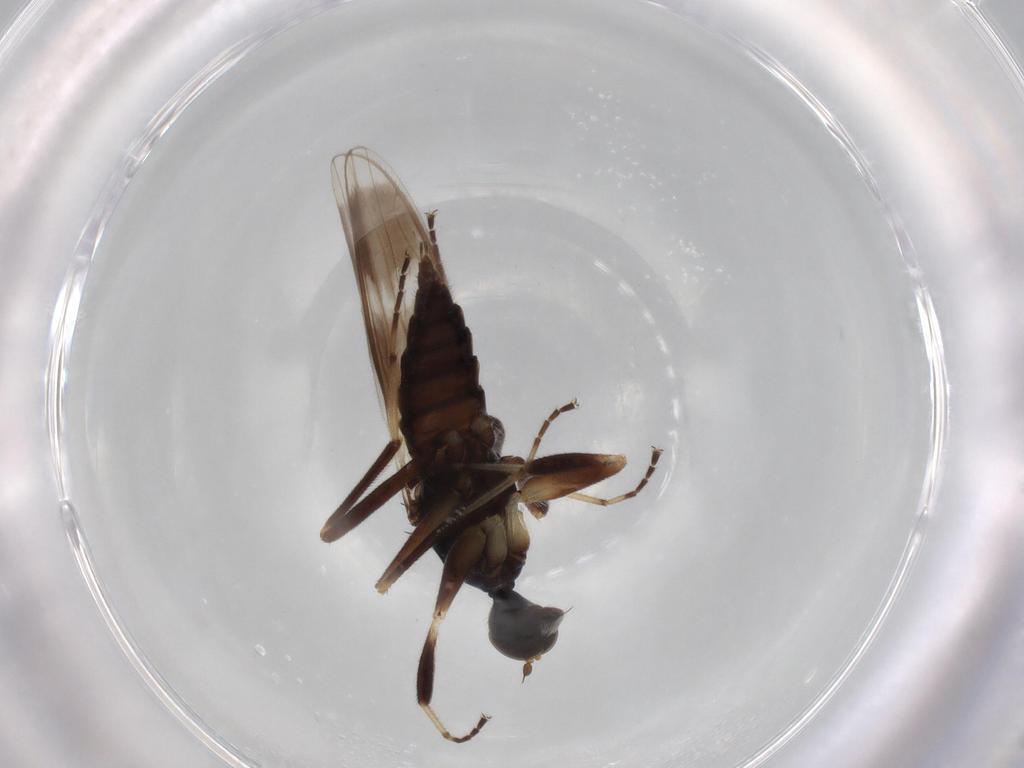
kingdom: Animalia
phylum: Arthropoda
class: Insecta
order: Diptera
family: Hybotidae
